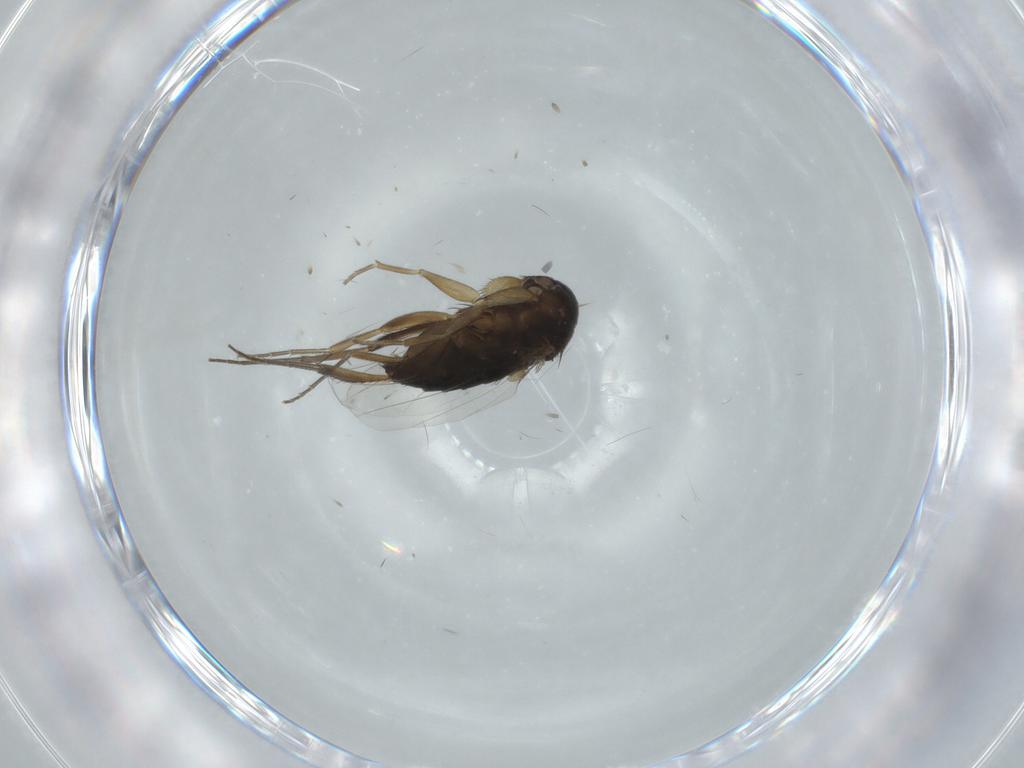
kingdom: Animalia
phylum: Arthropoda
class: Insecta
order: Diptera
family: Phoridae
